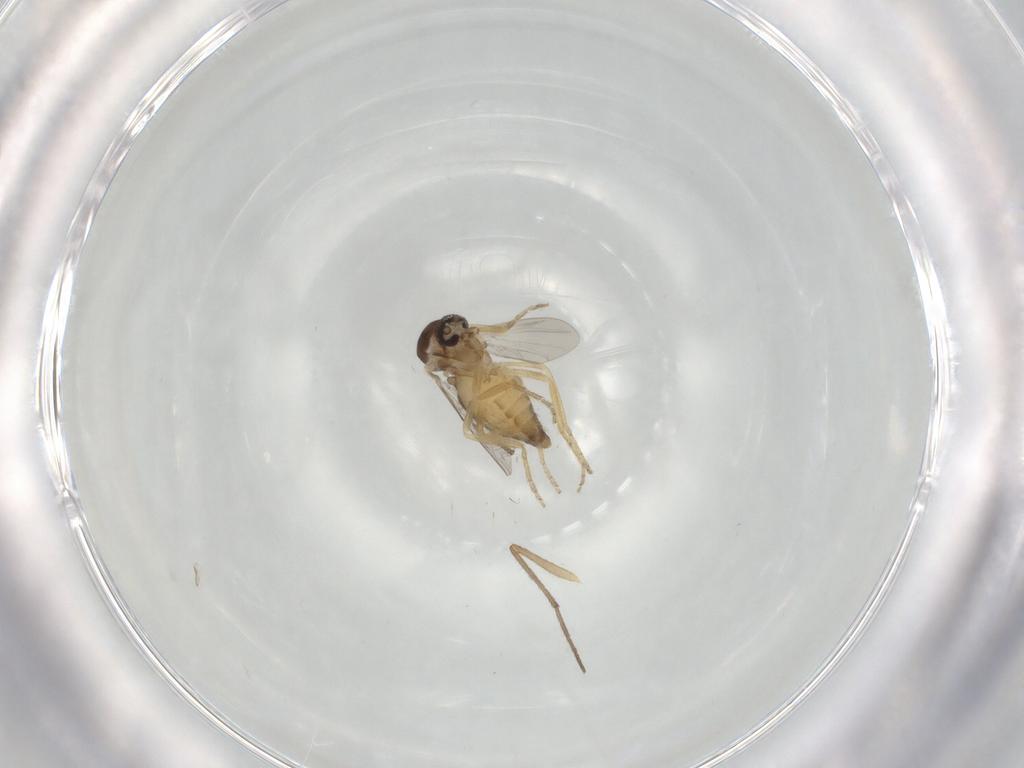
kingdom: Animalia
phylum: Arthropoda
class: Insecta
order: Diptera
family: Ceratopogonidae
